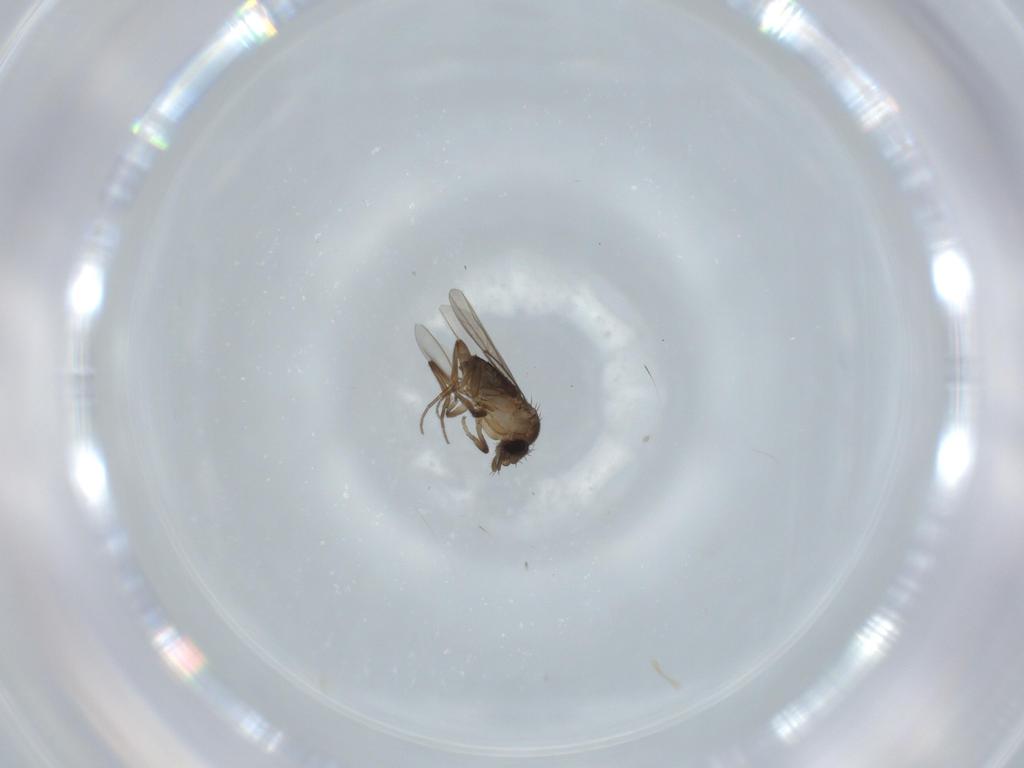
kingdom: Animalia
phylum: Arthropoda
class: Insecta
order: Diptera
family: Phoridae
